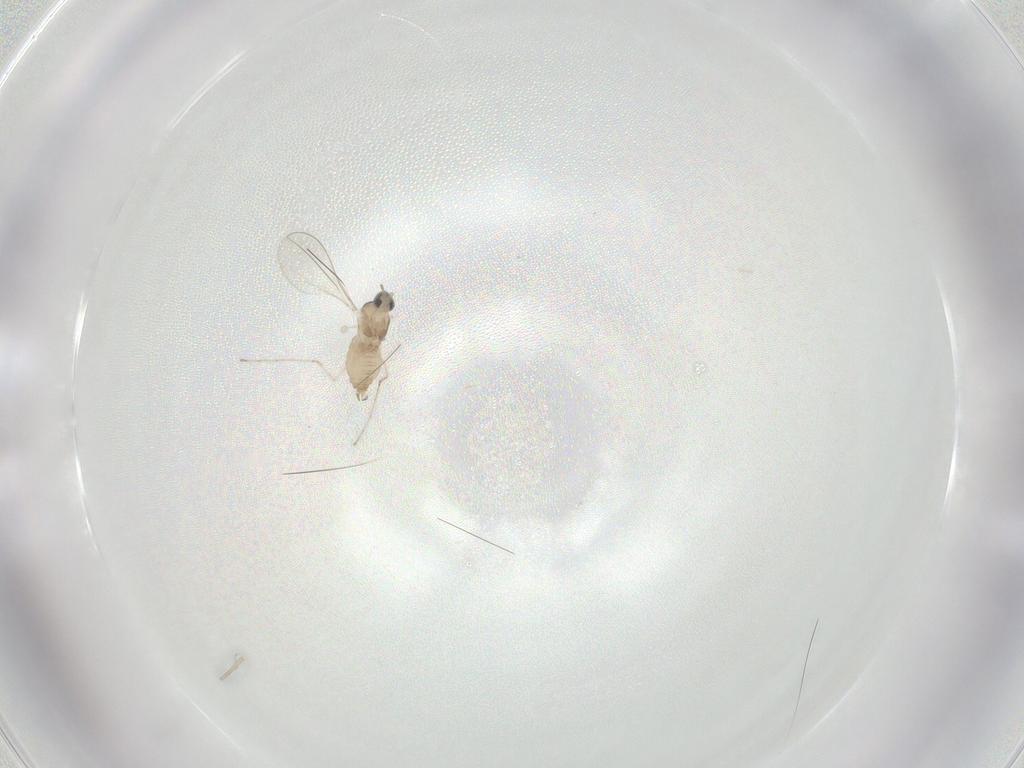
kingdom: Animalia
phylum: Arthropoda
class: Insecta
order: Diptera
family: Cecidomyiidae
